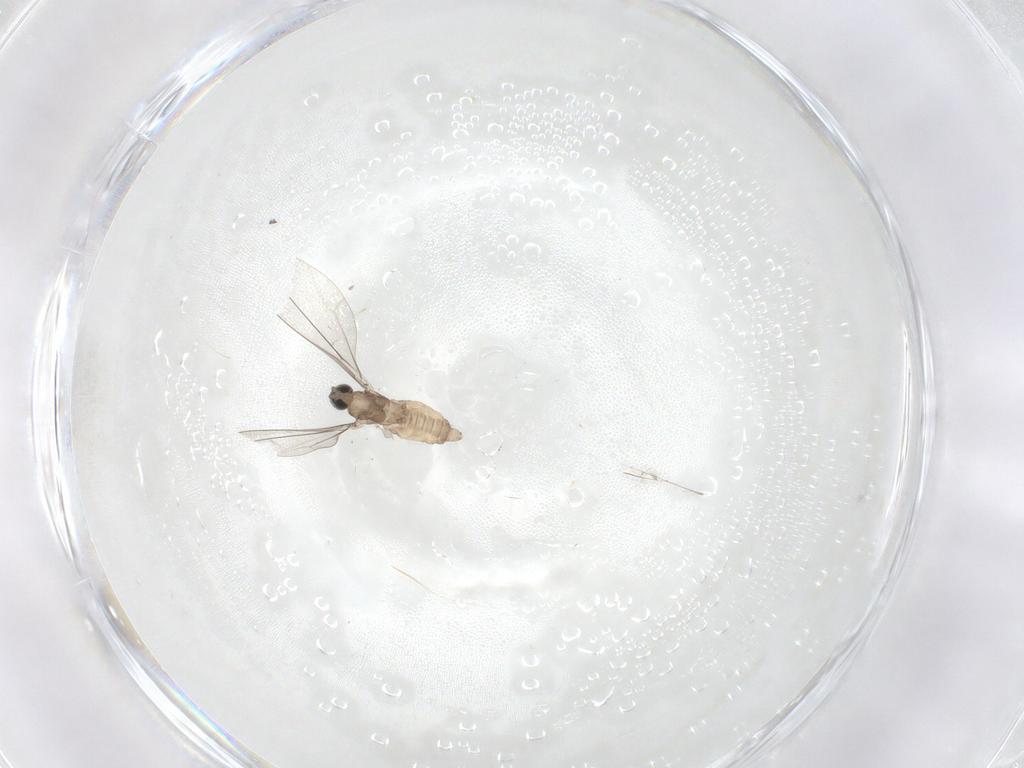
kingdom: Animalia
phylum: Arthropoda
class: Insecta
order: Diptera
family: Cecidomyiidae
